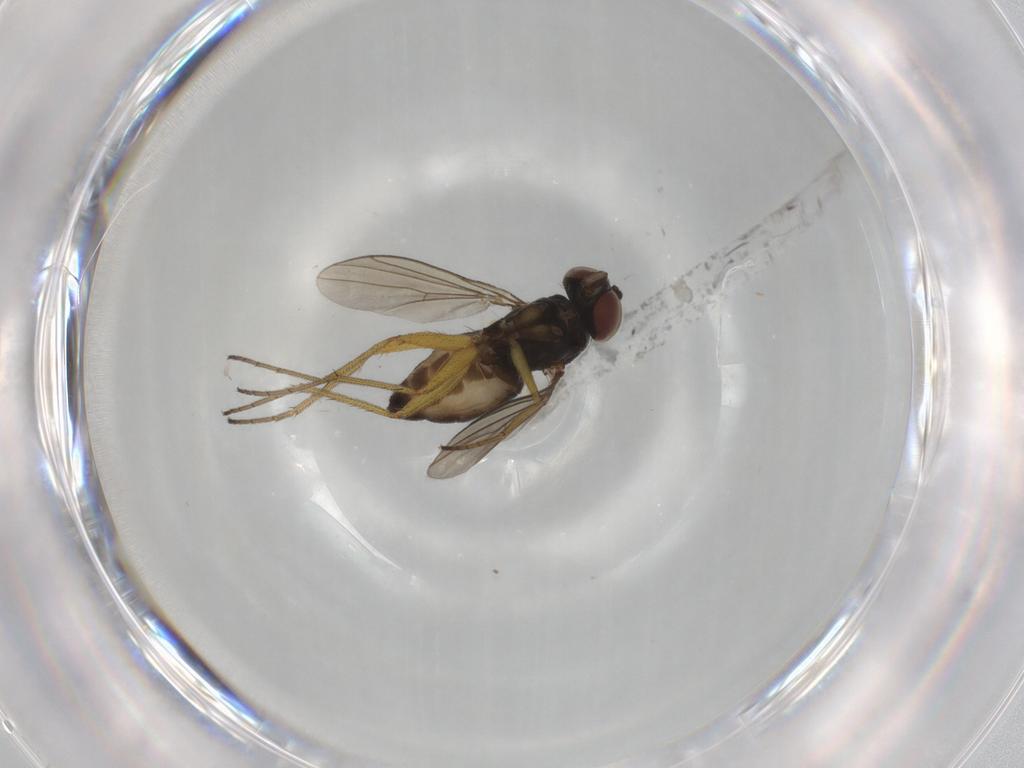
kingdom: Animalia
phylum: Arthropoda
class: Insecta
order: Diptera
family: Dolichopodidae
